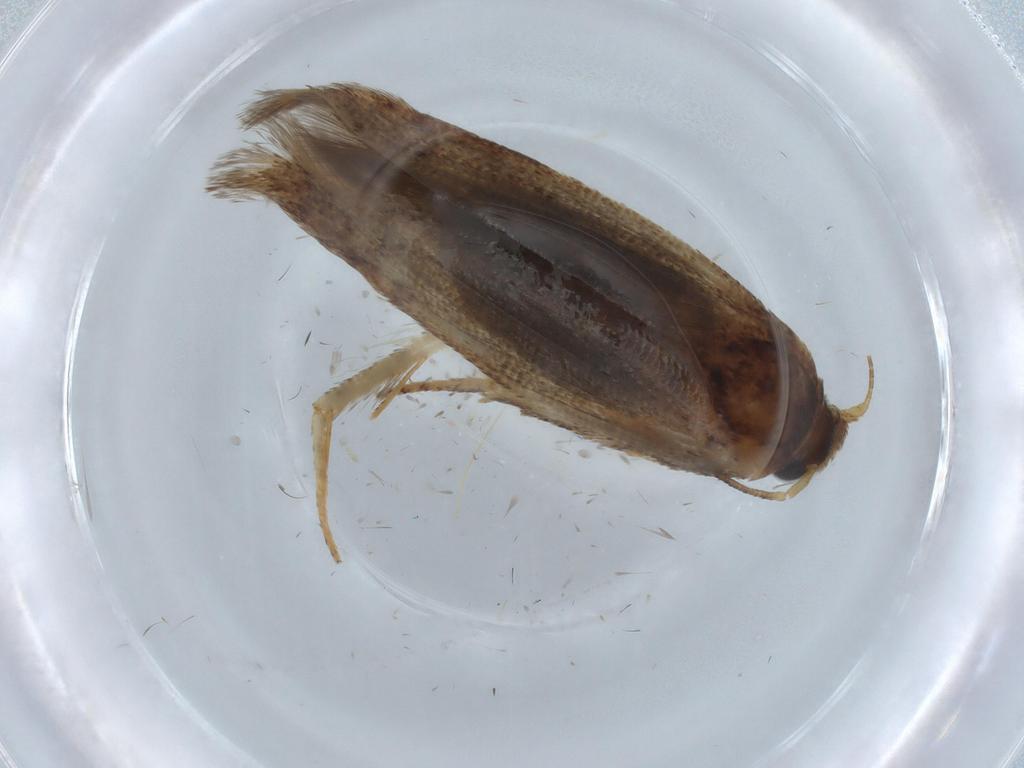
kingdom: Animalia
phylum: Arthropoda
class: Insecta
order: Lepidoptera
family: Blastobasidae
